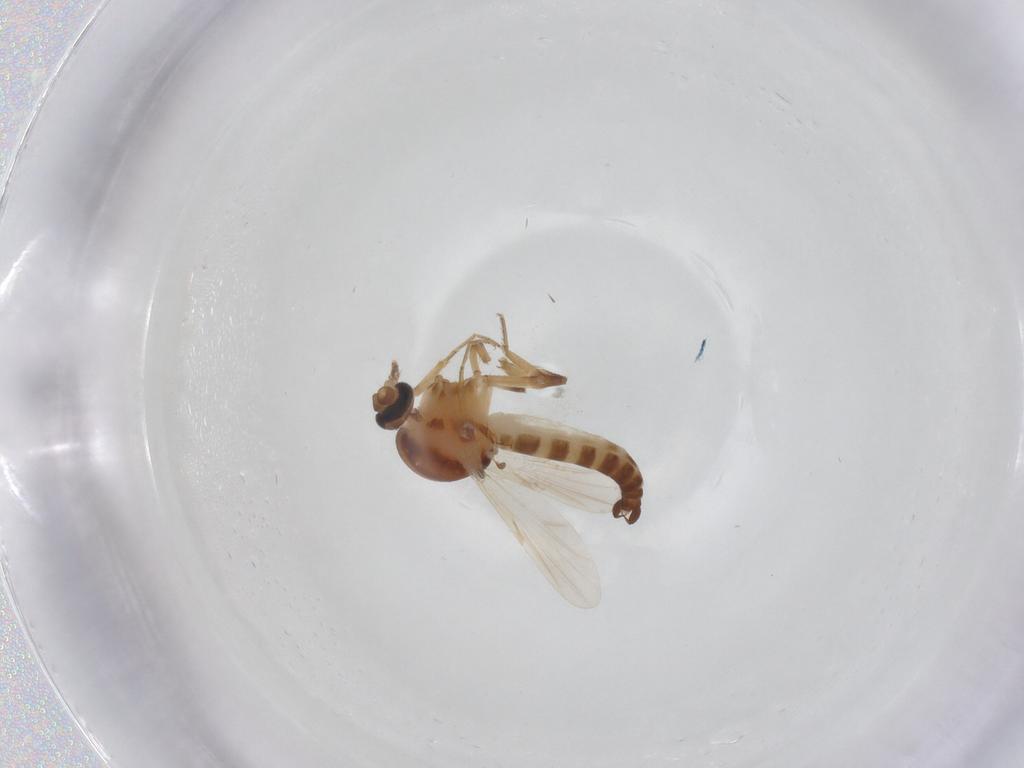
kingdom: Animalia
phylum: Arthropoda
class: Insecta
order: Diptera
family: Ceratopogonidae
